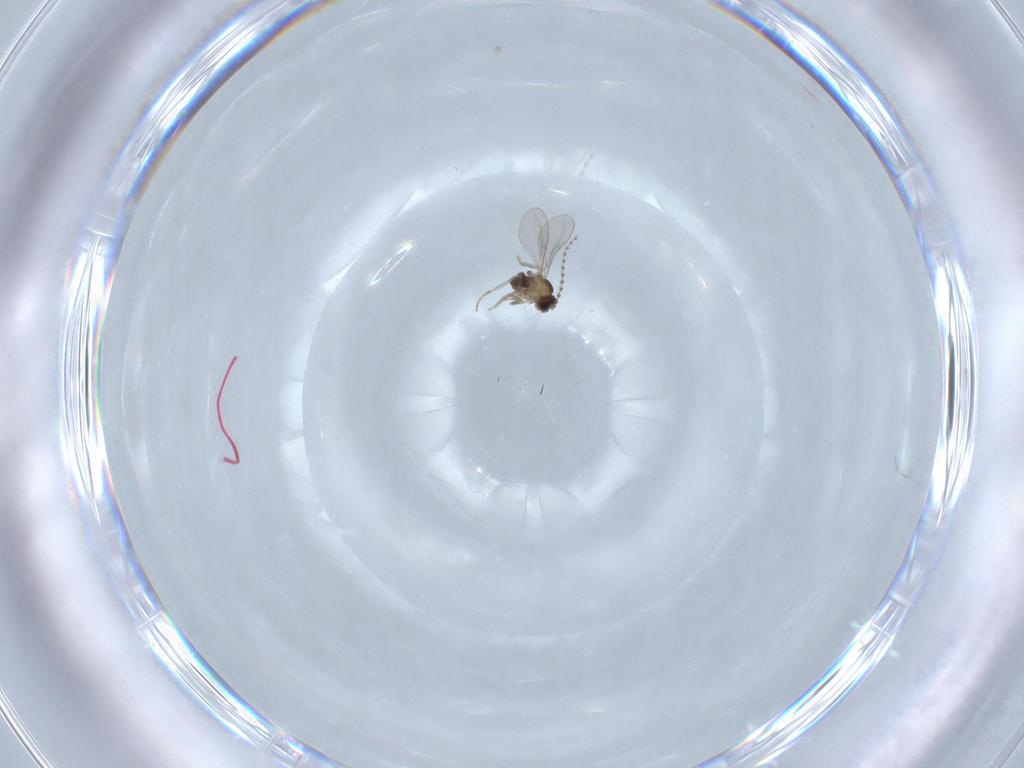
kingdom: Animalia
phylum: Arthropoda
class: Insecta
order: Diptera
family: Cecidomyiidae
